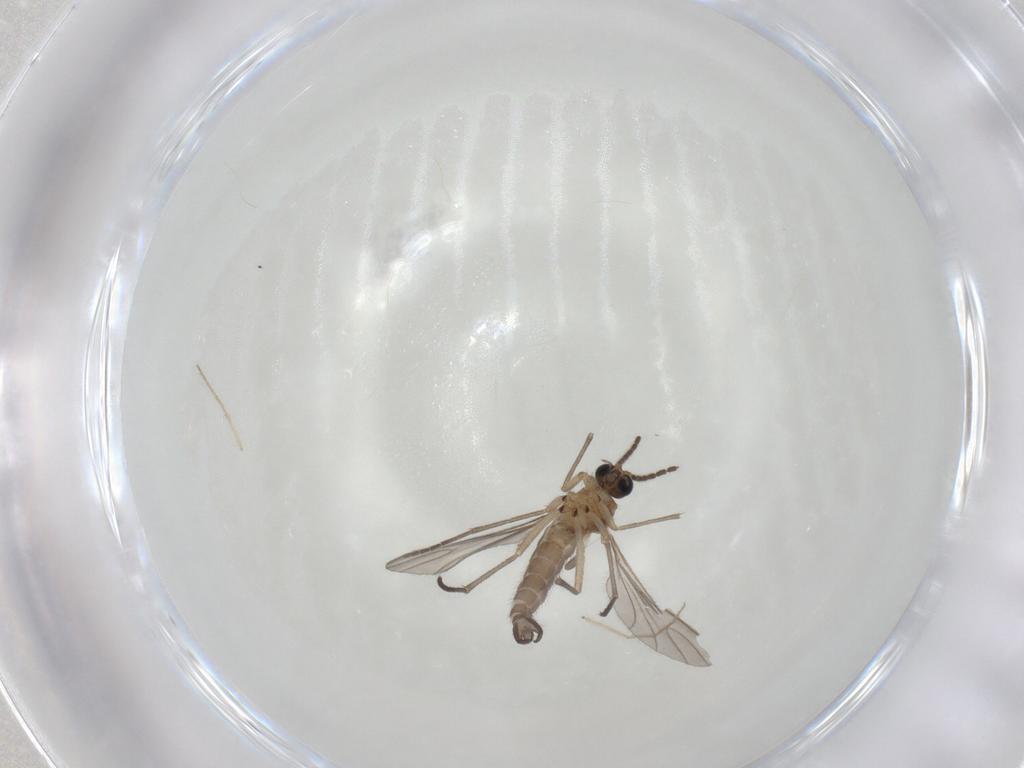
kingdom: Animalia
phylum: Arthropoda
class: Insecta
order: Diptera
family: Sciaridae
